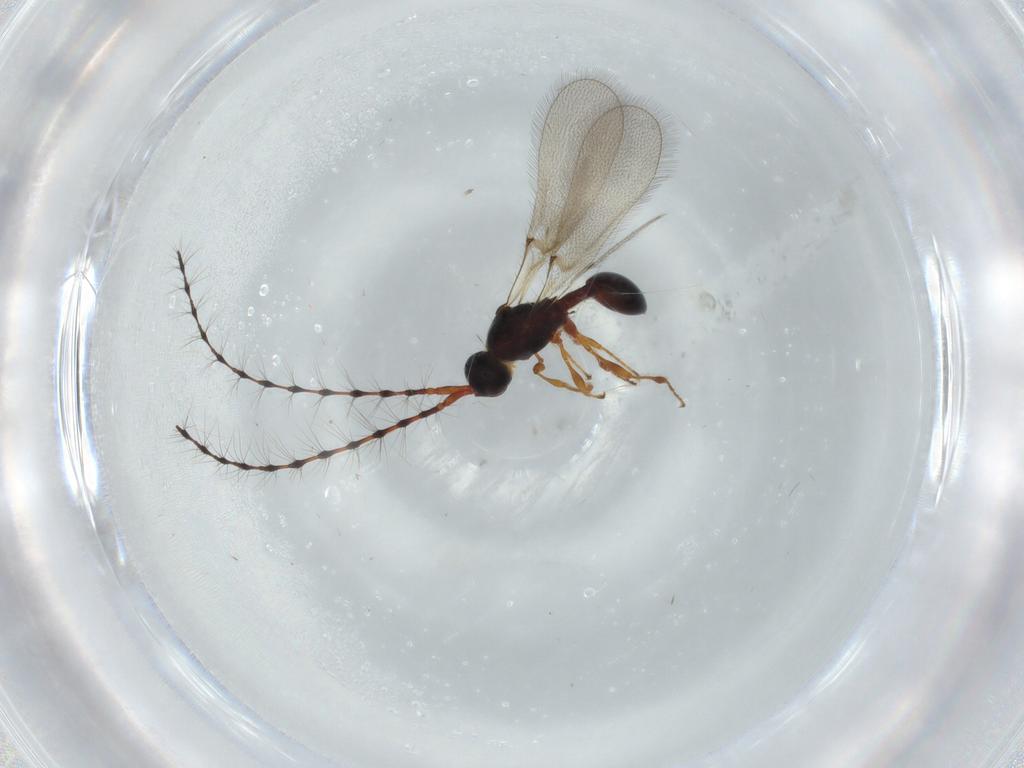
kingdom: Animalia
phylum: Arthropoda
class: Insecta
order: Hymenoptera
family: Diapriidae
